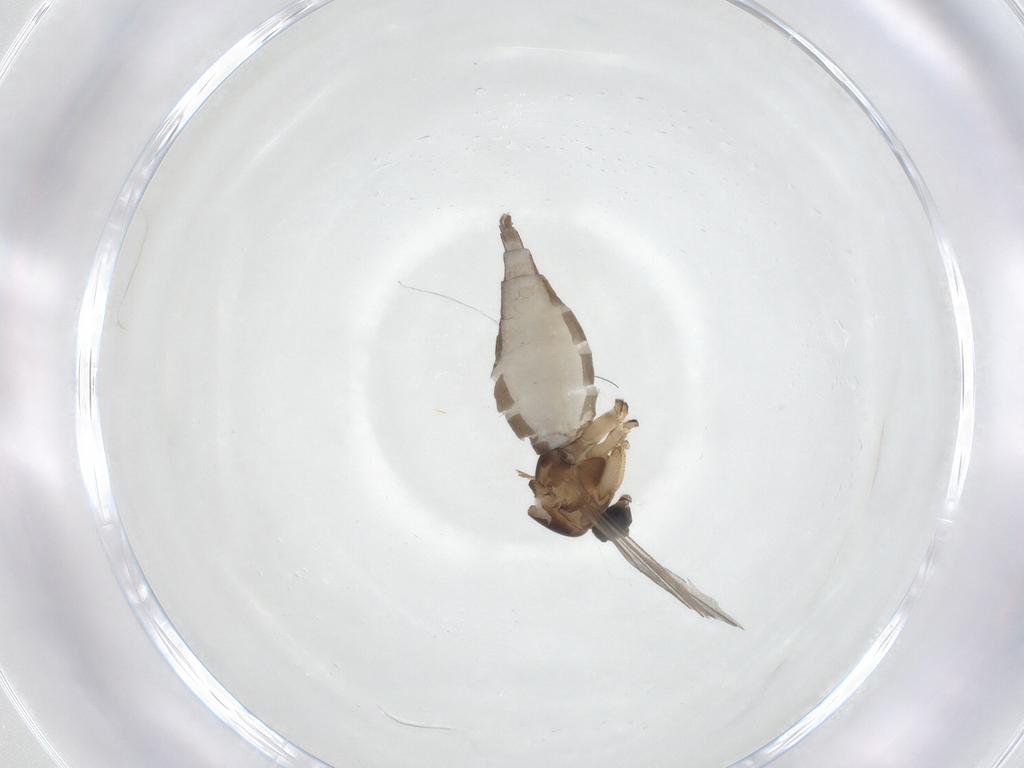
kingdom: Animalia
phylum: Arthropoda
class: Insecta
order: Diptera
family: Sciaridae
